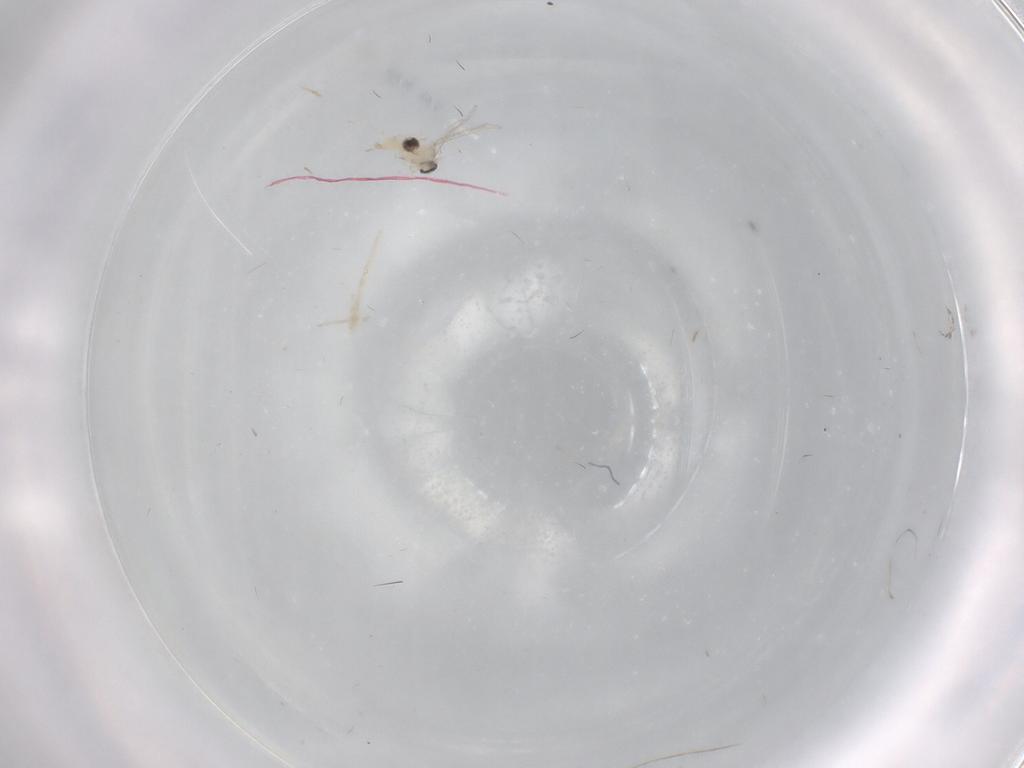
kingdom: Animalia
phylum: Arthropoda
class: Insecta
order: Diptera
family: Cecidomyiidae
